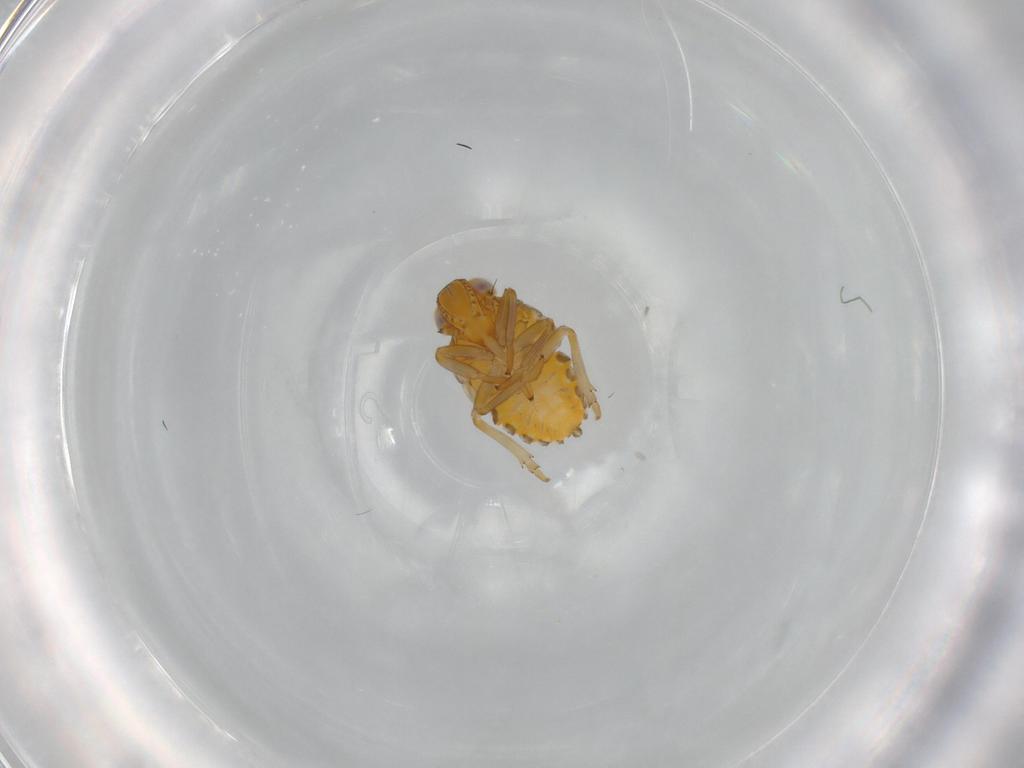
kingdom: Animalia
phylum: Arthropoda
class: Insecta
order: Hemiptera
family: Issidae
